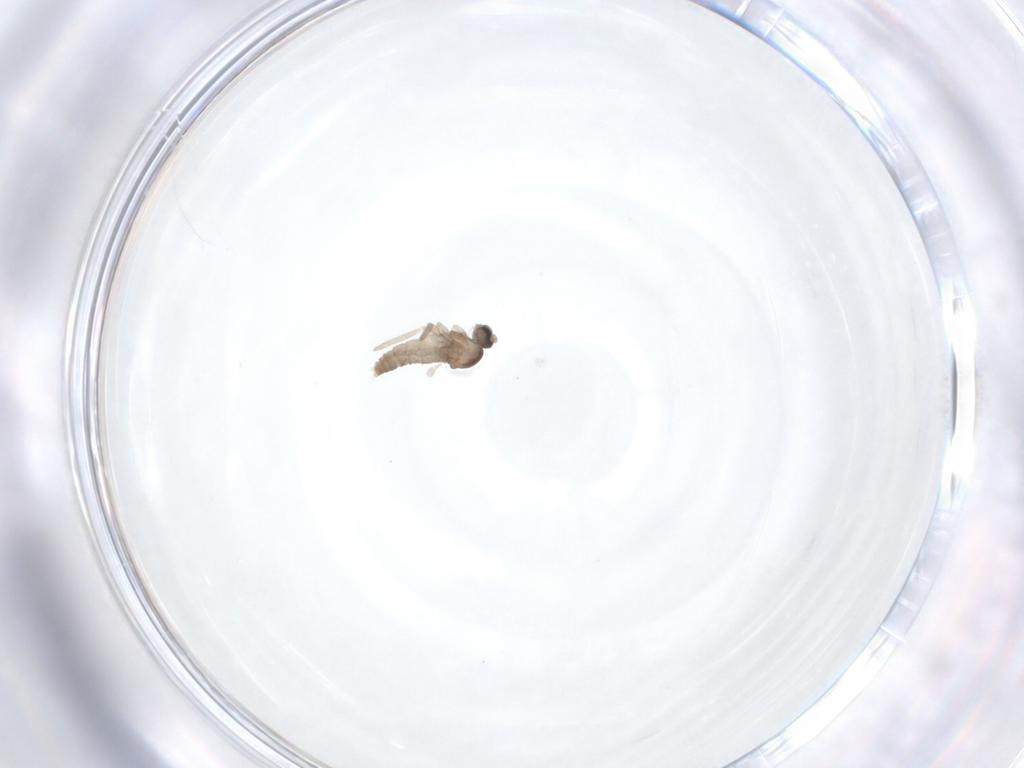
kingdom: Animalia
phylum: Arthropoda
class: Insecta
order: Diptera
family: Cecidomyiidae
